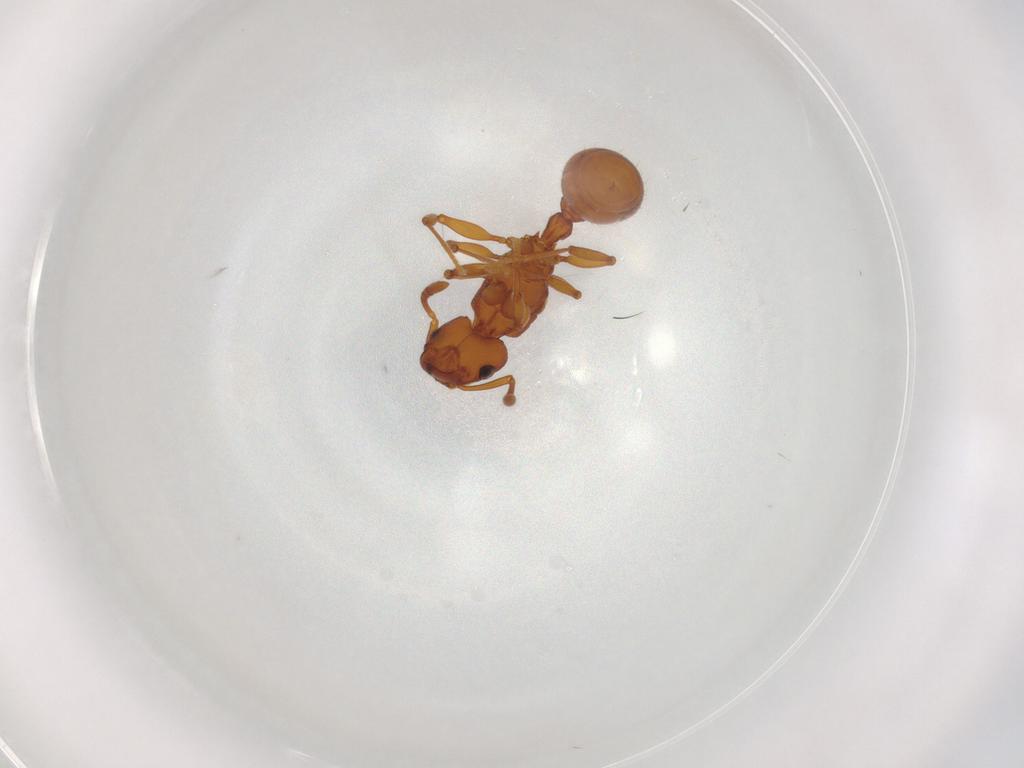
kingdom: Animalia
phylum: Arthropoda
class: Insecta
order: Hymenoptera
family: Formicidae
